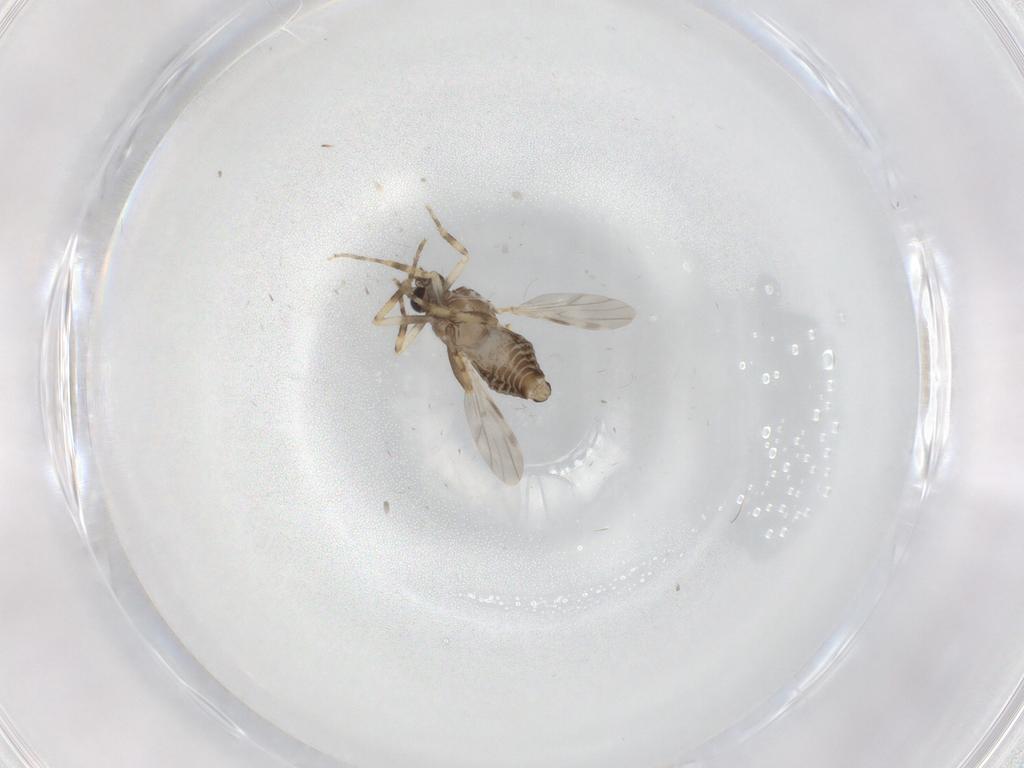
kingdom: Animalia
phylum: Arthropoda
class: Insecta
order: Diptera
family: Ceratopogonidae
